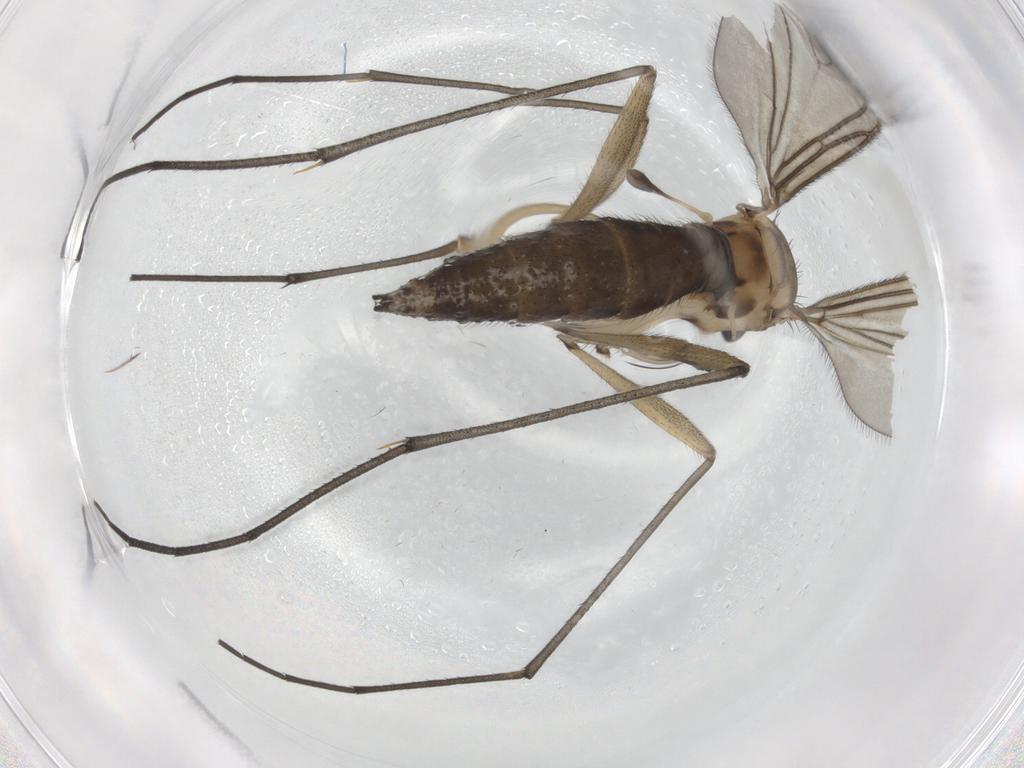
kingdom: Animalia
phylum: Arthropoda
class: Insecta
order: Diptera
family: Sciaridae
